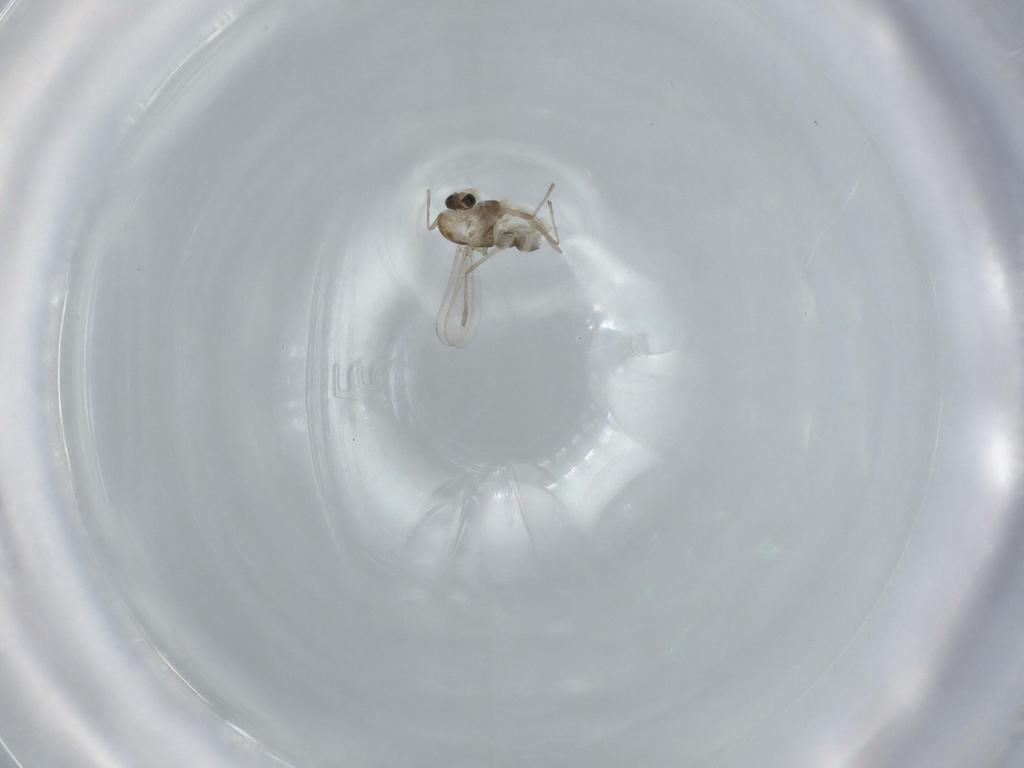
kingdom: Animalia
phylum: Arthropoda
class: Insecta
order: Diptera
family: Chironomidae
